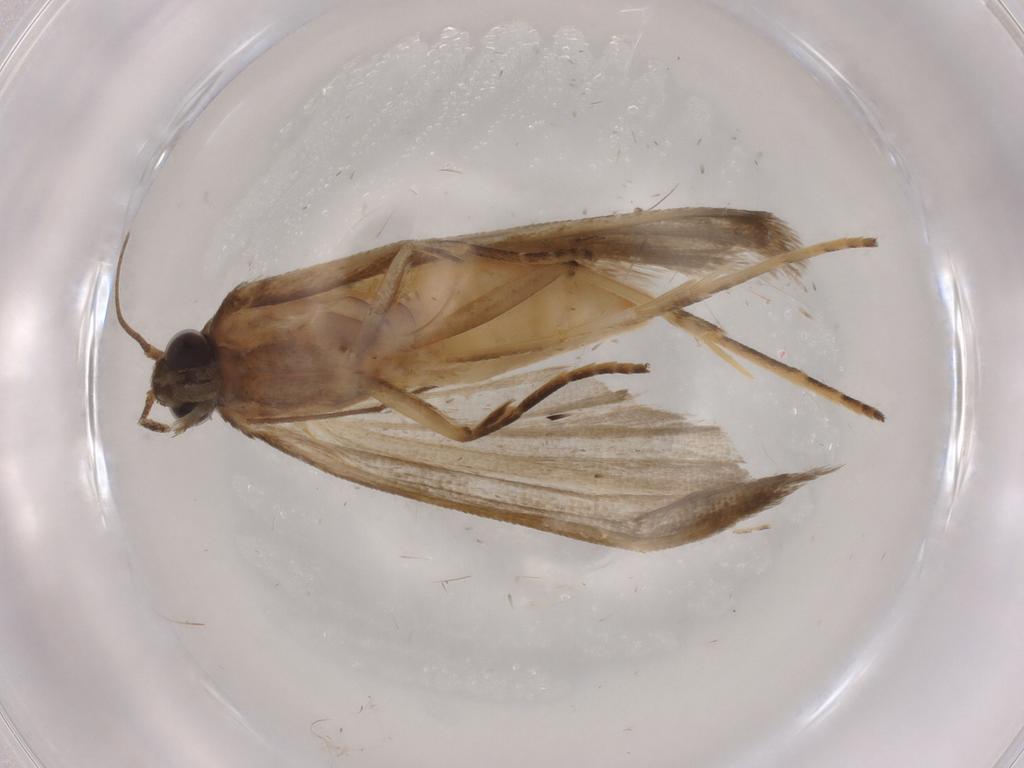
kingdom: Animalia
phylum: Arthropoda
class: Insecta
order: Lepidoptera
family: Noctuidae
